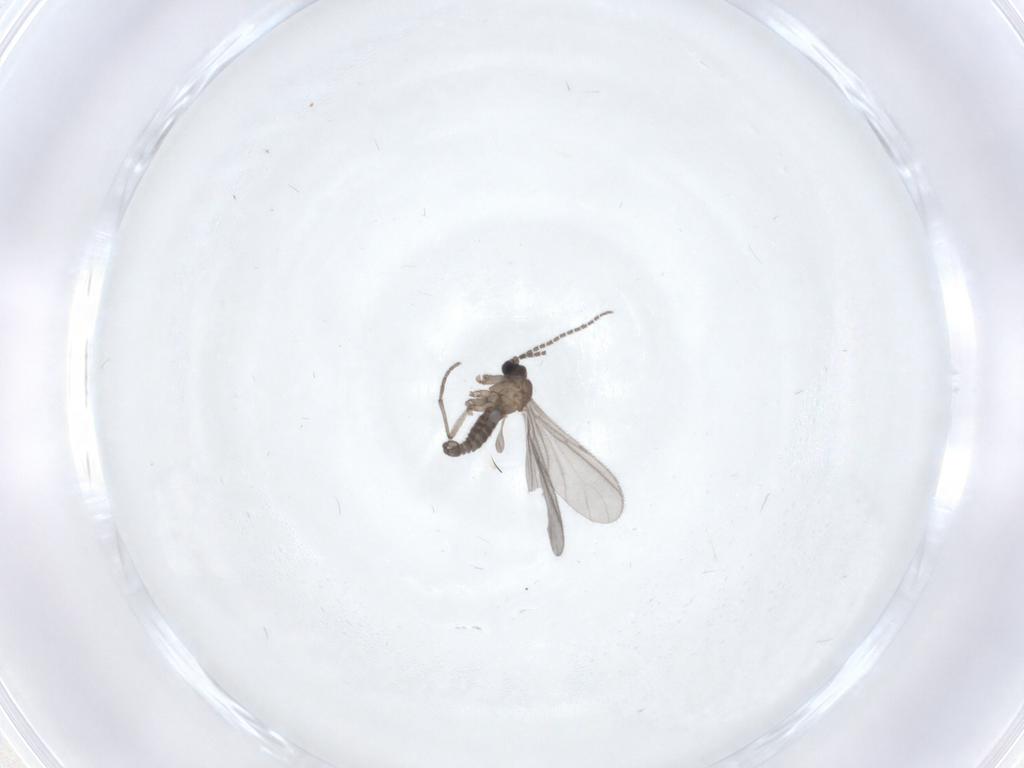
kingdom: Animalia
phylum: Arthropoda
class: Insecta
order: Diptera
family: Sciaridae
